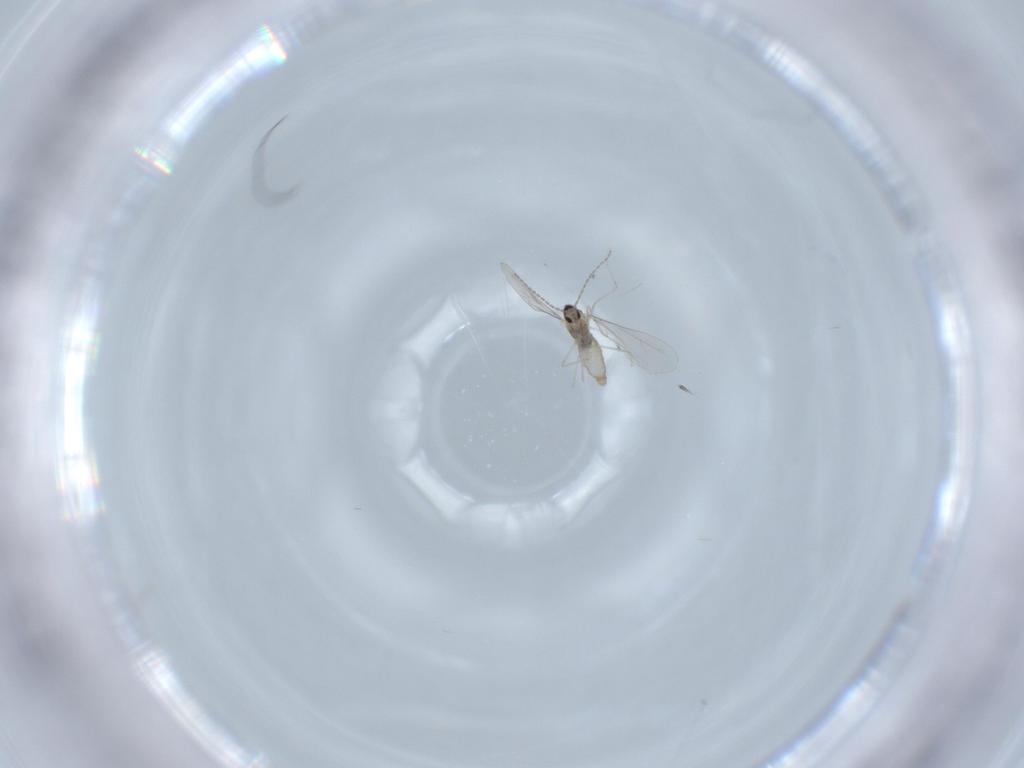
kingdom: Animalia
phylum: Arthropoda
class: Insecta
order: Diptera
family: Cecidomyiidae
